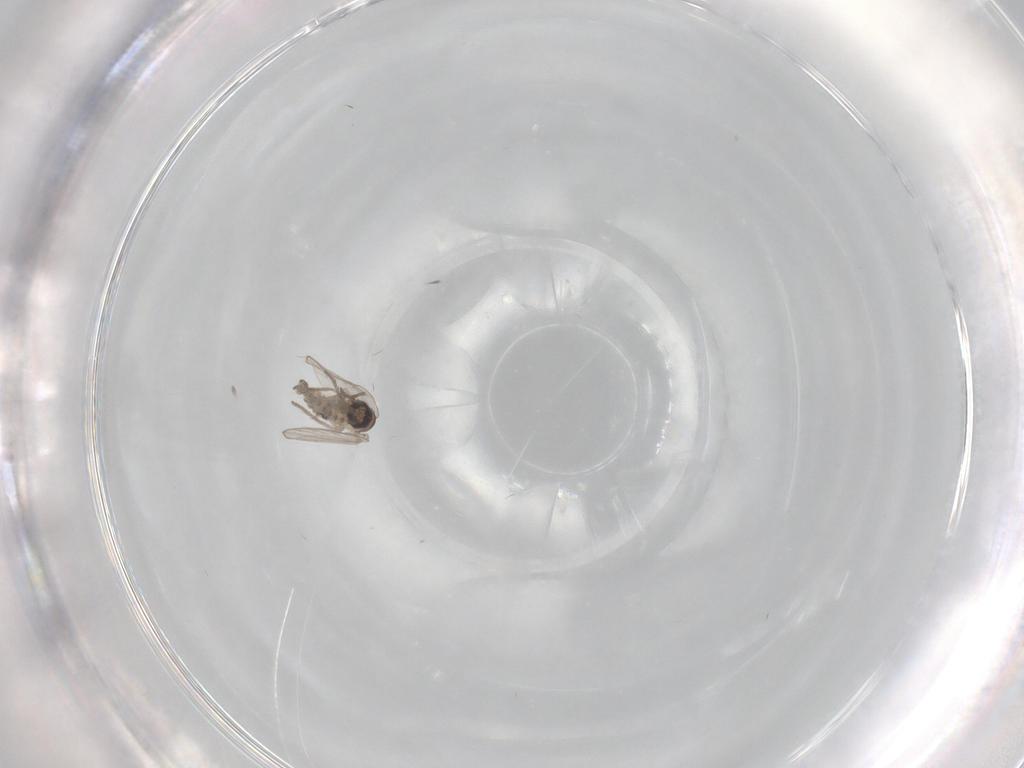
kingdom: Animalia
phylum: Arthropoda
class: Insecta
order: Diptera
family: Psychodidae
